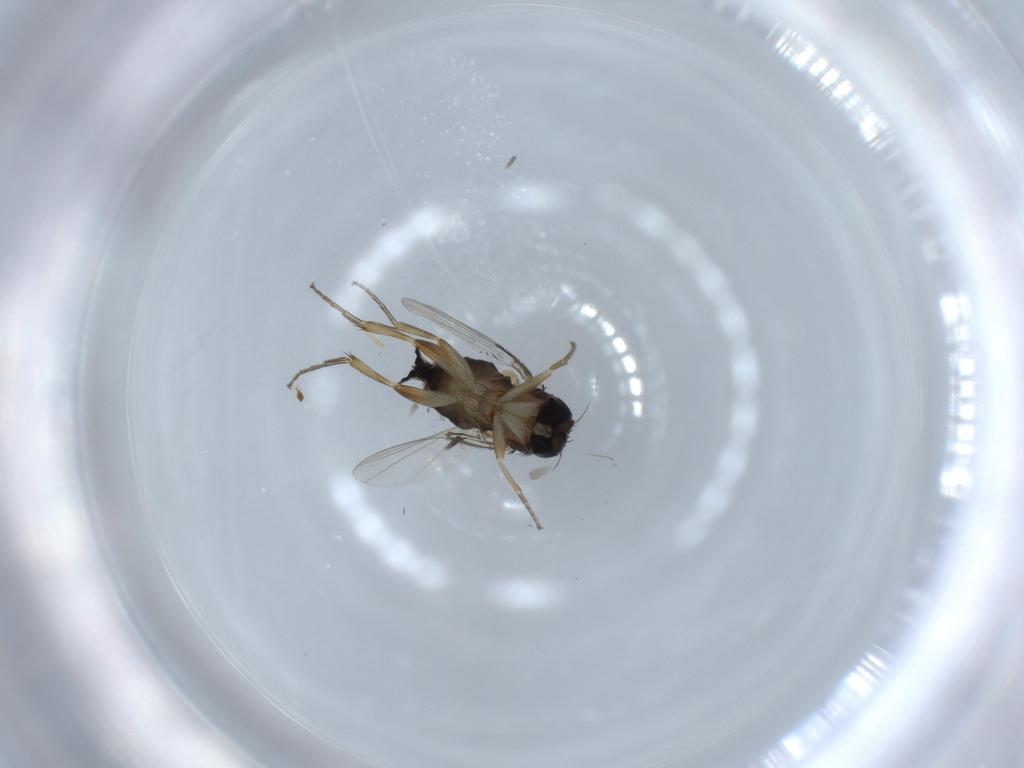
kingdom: Animalia
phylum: Arthropoda
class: Insecta
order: Diptera
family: Phoridae
